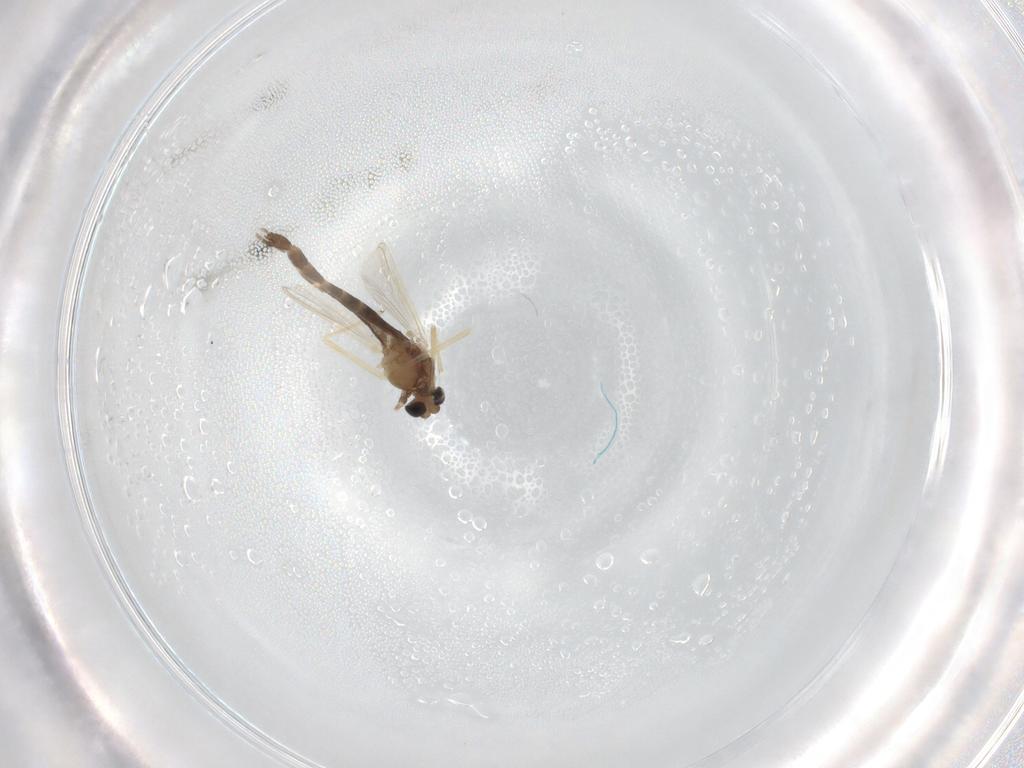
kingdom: Animalia
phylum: Arthropoda
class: Insecta
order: Diptera
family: Chironomidae
